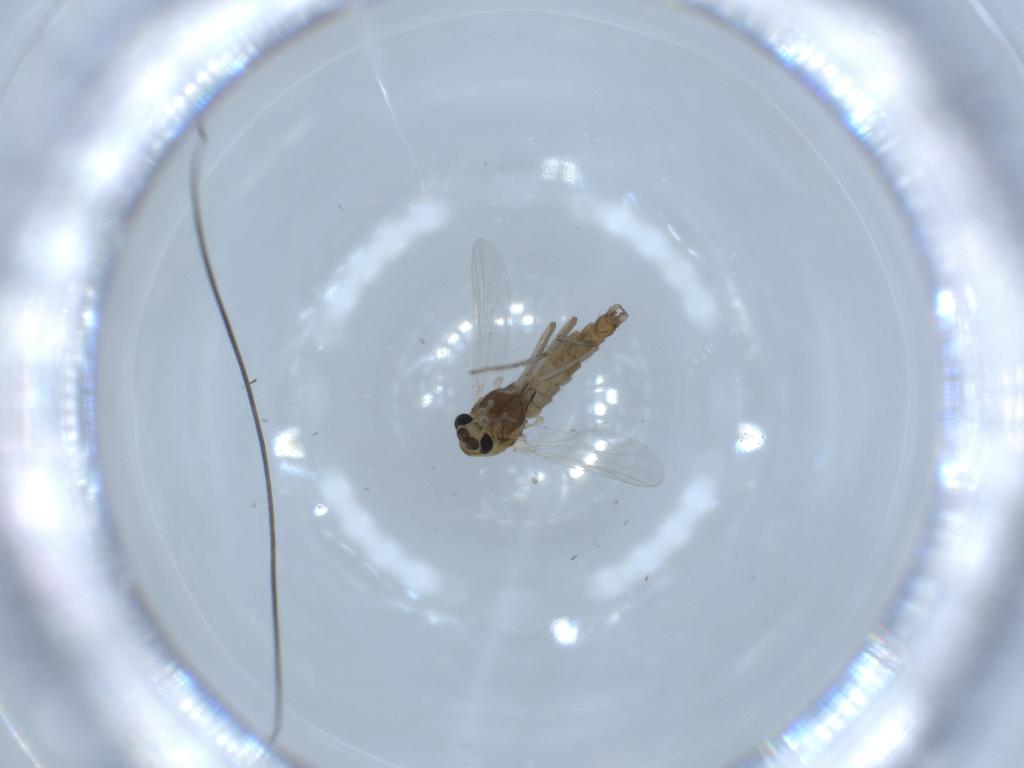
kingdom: Animalia
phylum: Arthropoda
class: Insecta
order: Diptera
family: Chironomidae
